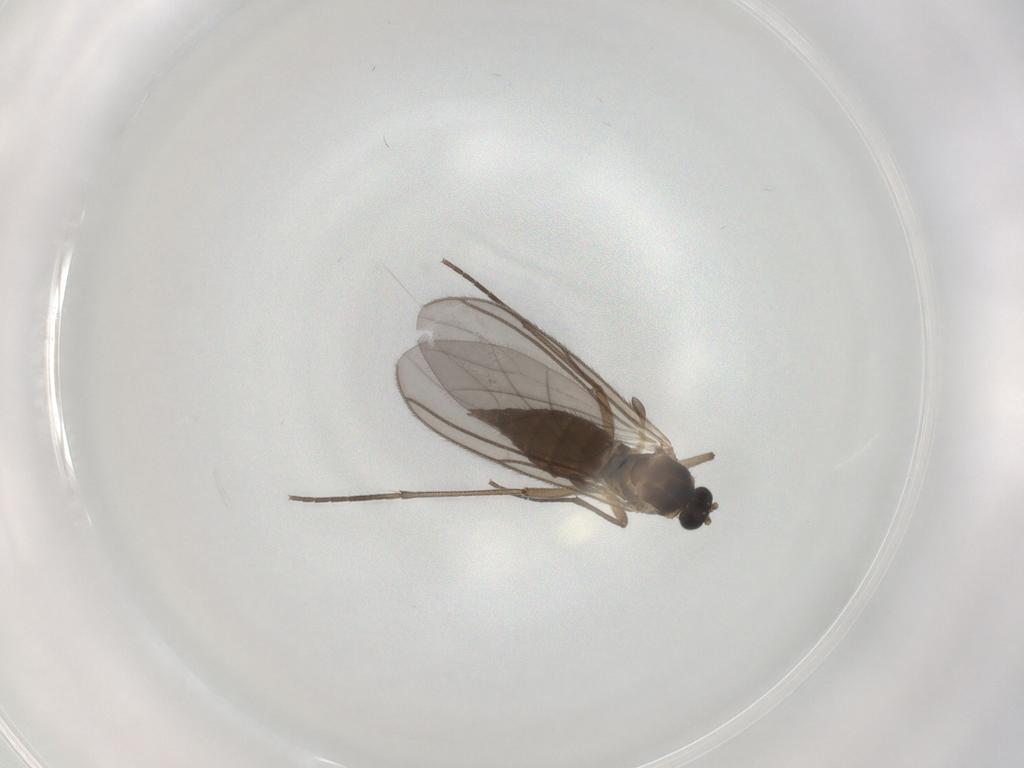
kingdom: Animalia
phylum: Arthropoda
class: Insecta
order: Diptera
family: Sciaridae
